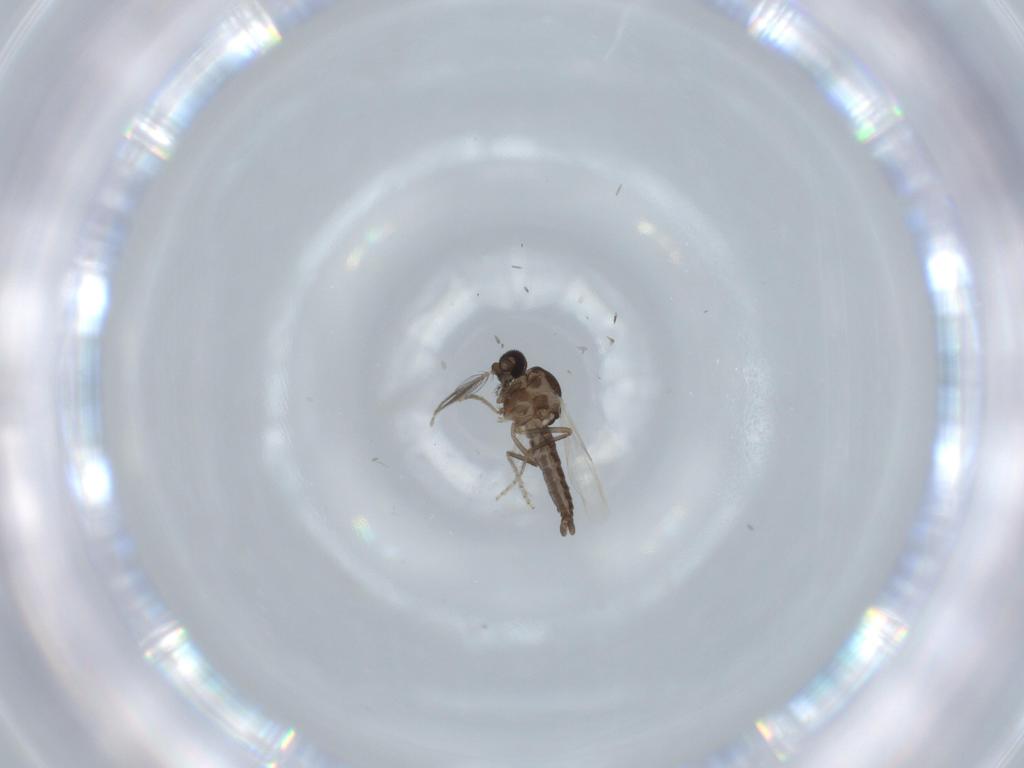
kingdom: Animalia
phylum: Arthropoda
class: Insecta
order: Diptera
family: Ceratopogonidae
